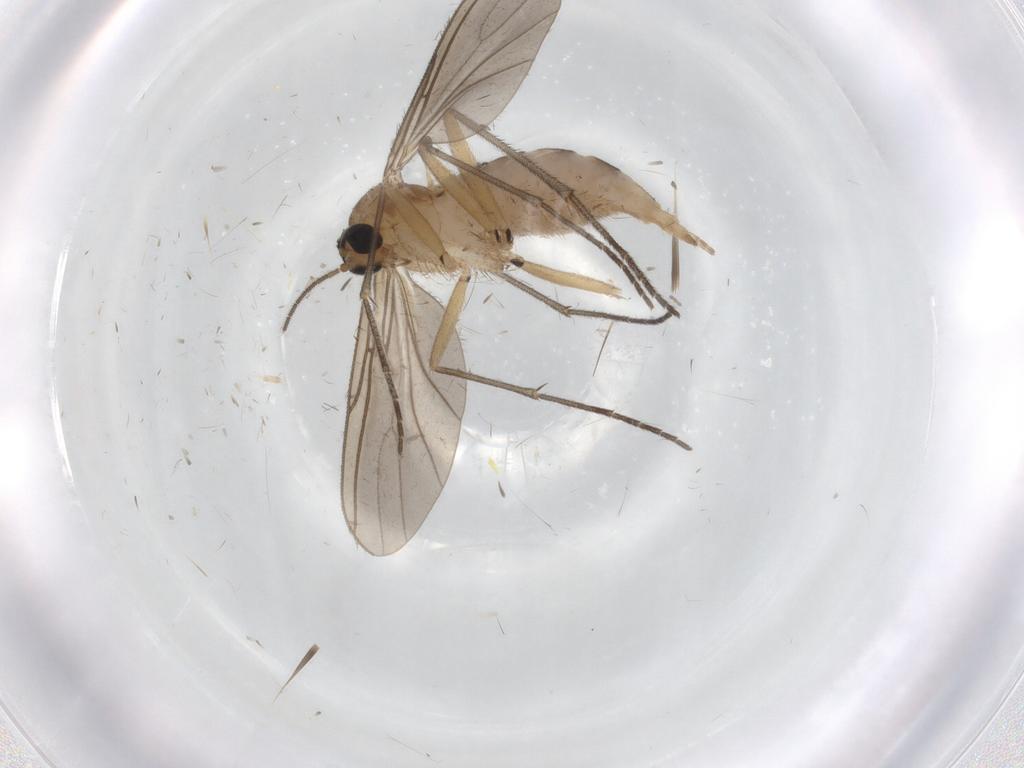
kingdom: Animalia
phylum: Arthropoda
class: Insecta
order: Diptera
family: Sciaridae
